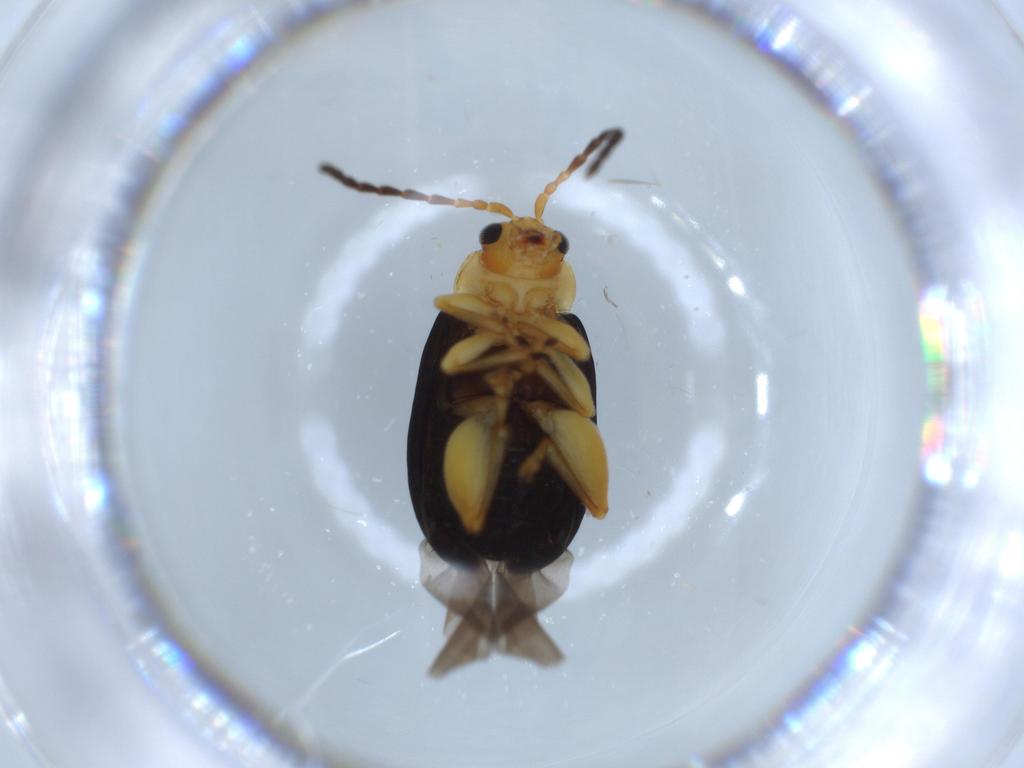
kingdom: Animalia
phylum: Arthropoda
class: Insecta
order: Coleoptera
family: Chrysomelidae
